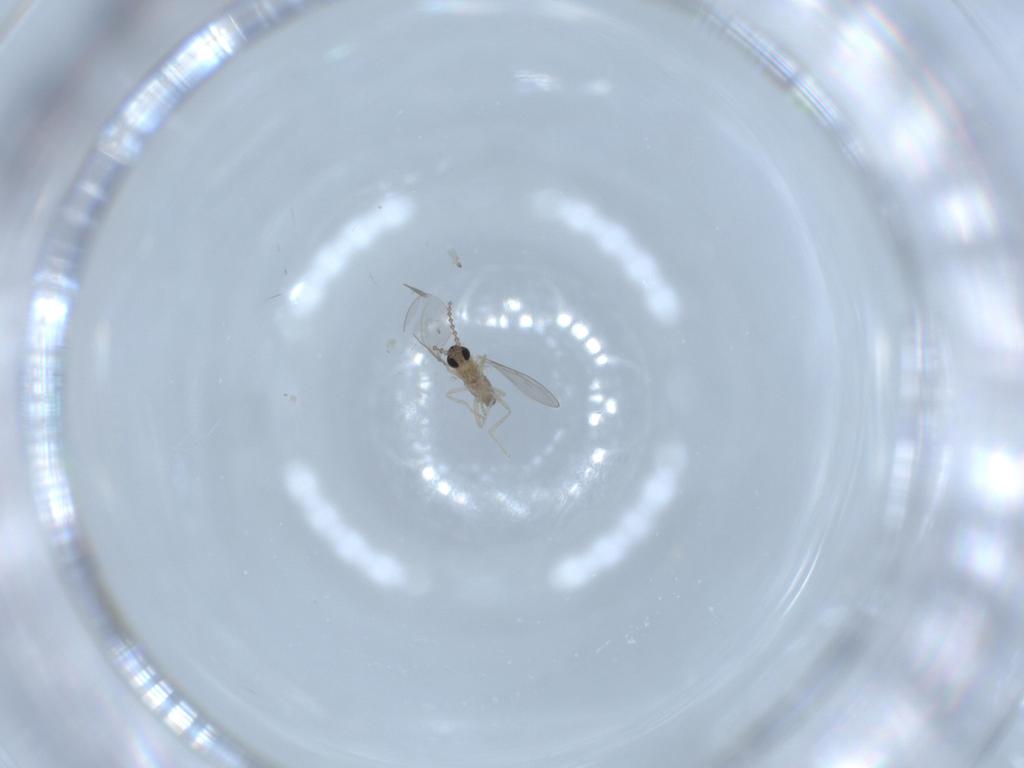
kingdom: Animalia
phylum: Arthropoda
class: Insecta
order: Diptera
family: Cecidomyiidae
